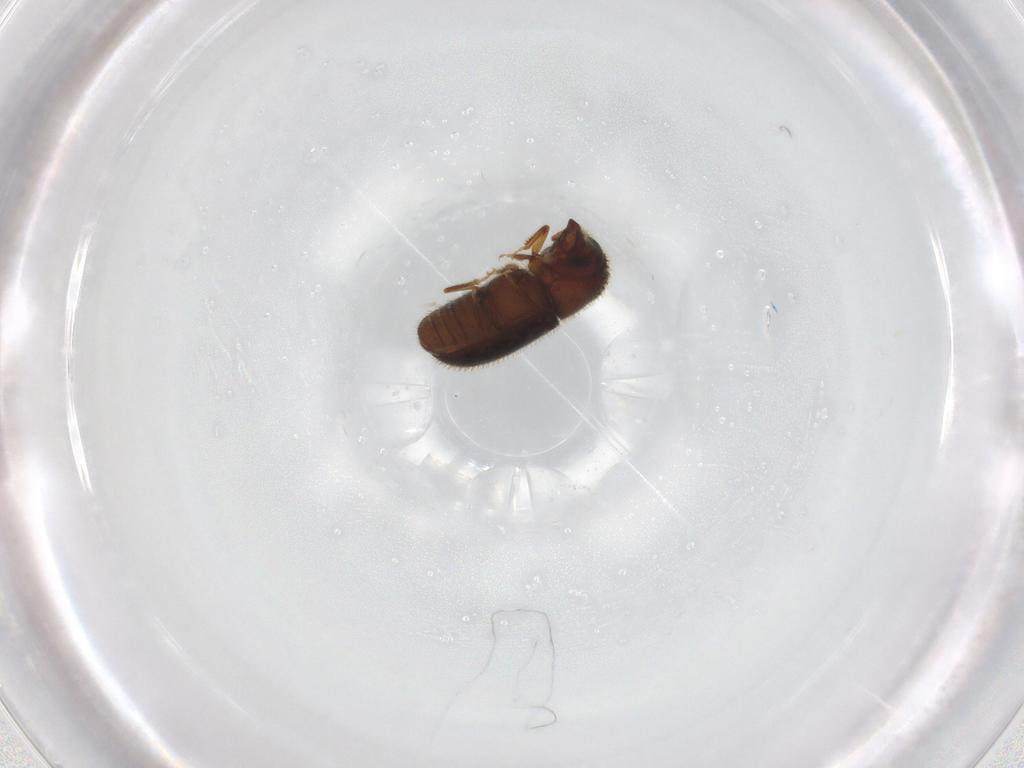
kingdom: Animalia
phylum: Arthropoda
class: Insecta
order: Coleoptera
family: Curculionidae
